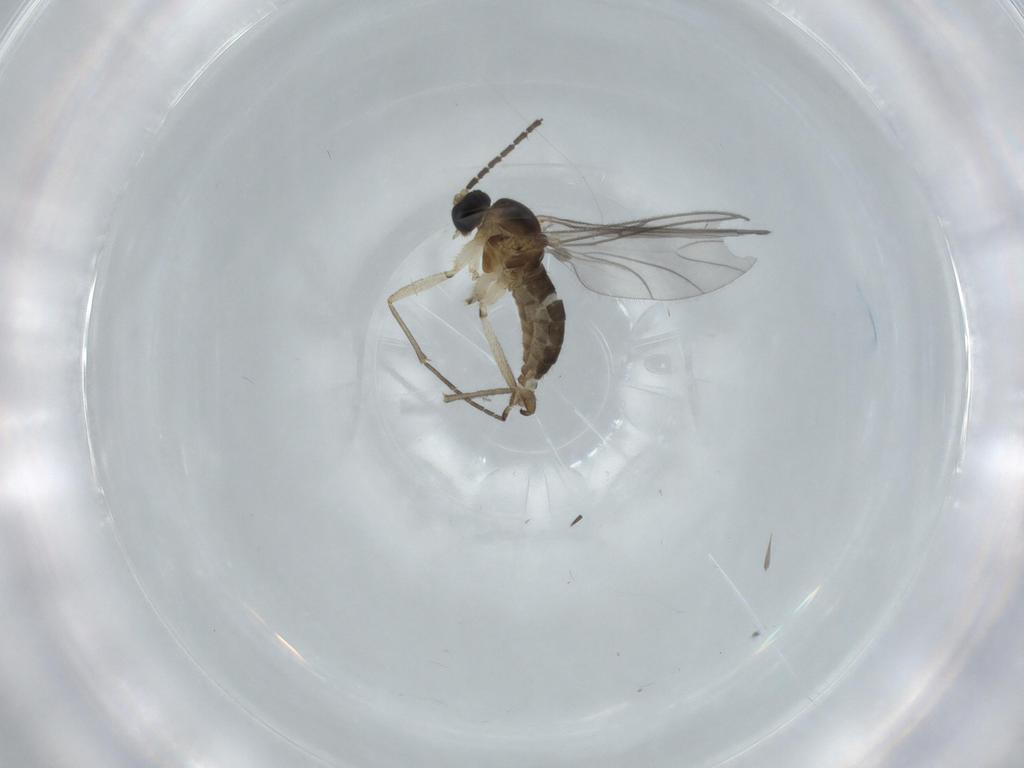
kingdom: Animalia
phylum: Arthropoda
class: Insecta
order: Diptera
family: Sciaridae
